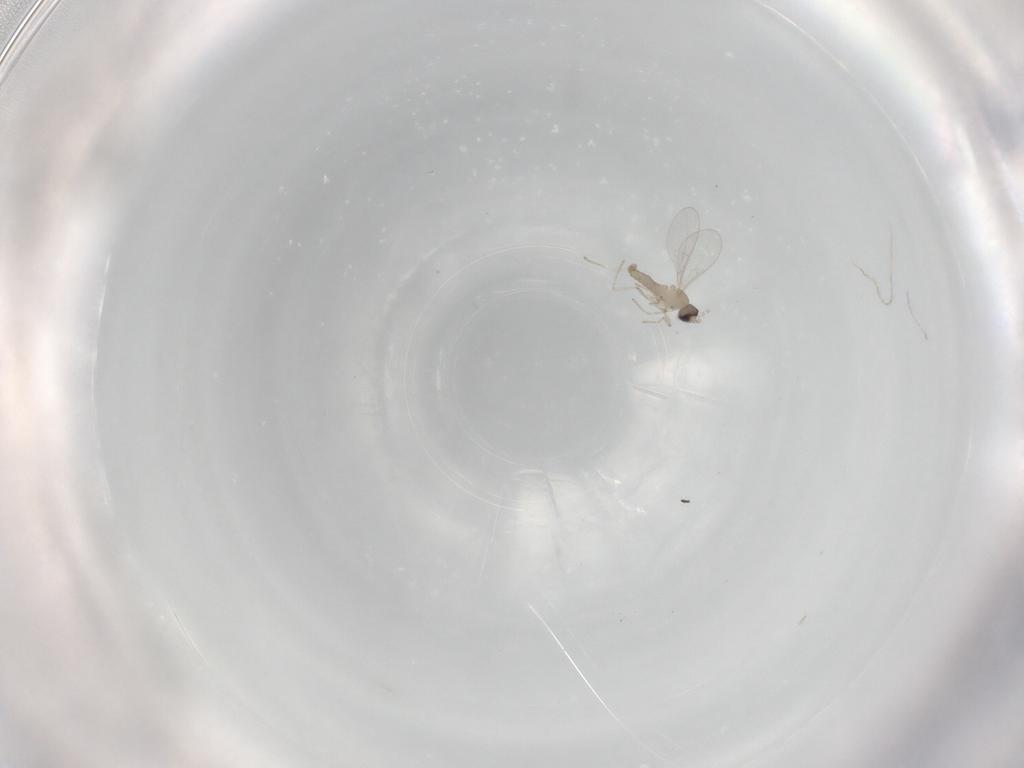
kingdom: Animalia
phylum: Arthropoda
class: Insecta
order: Diptera
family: Cecidomyiidae
